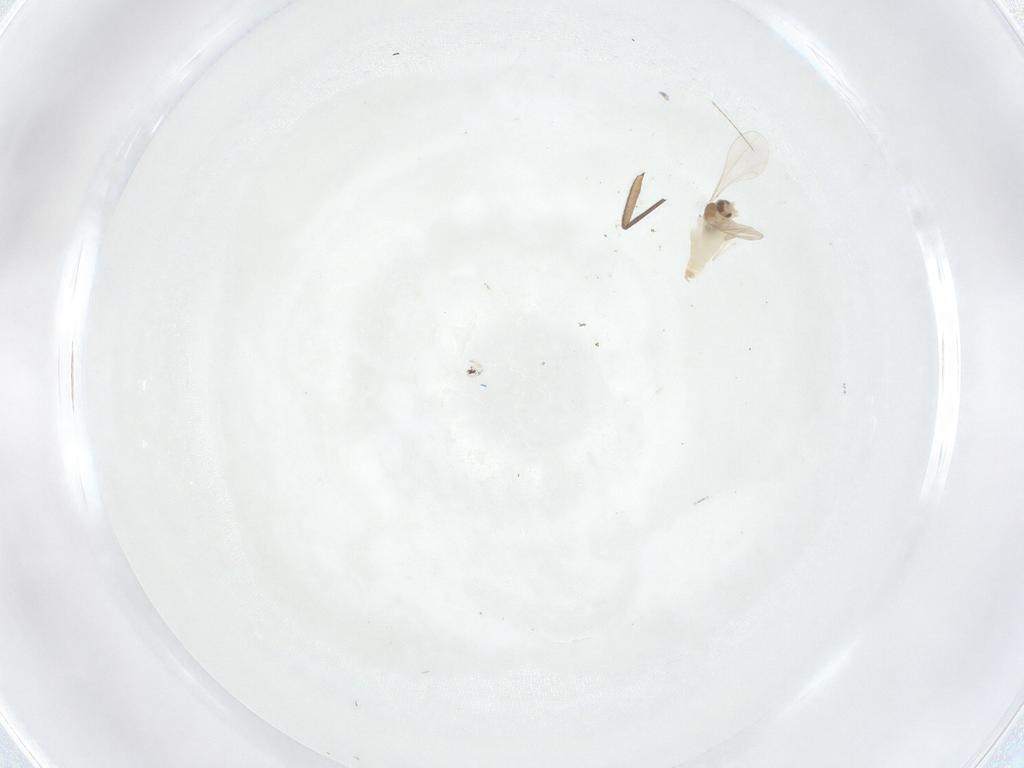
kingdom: Animalia
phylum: Arthropoda
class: Insecta
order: Diptera
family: Cecidomyiidae
